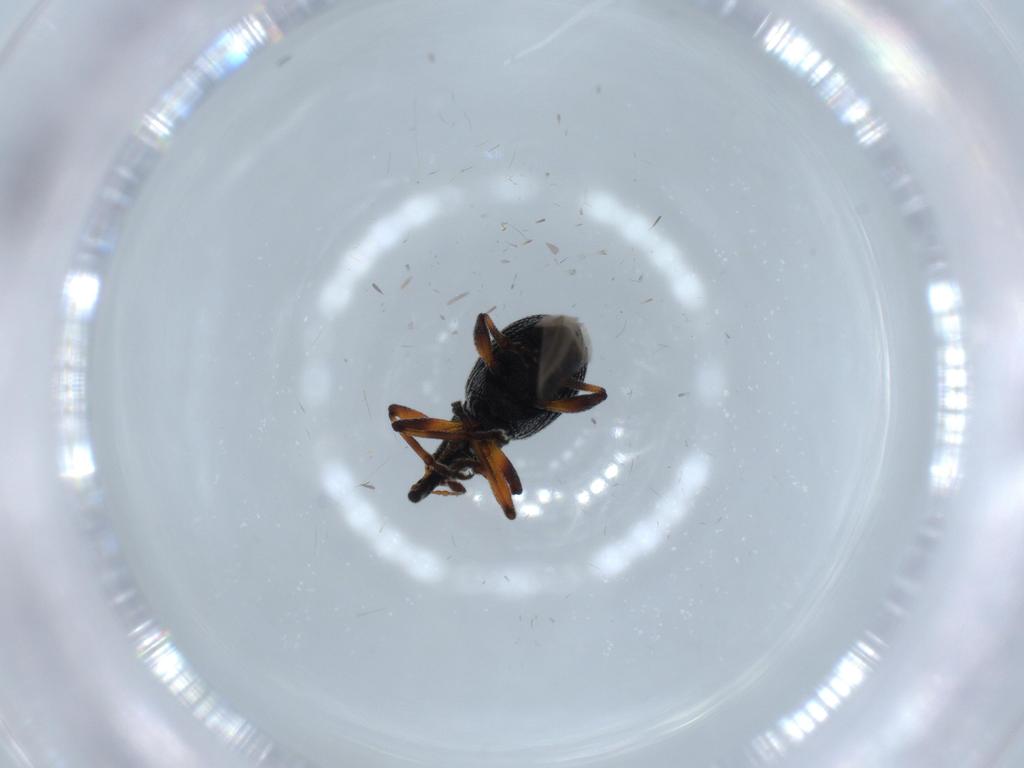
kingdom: Animalia
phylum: Arthropoda
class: Insecta
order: Coleoptera
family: Brentidae
